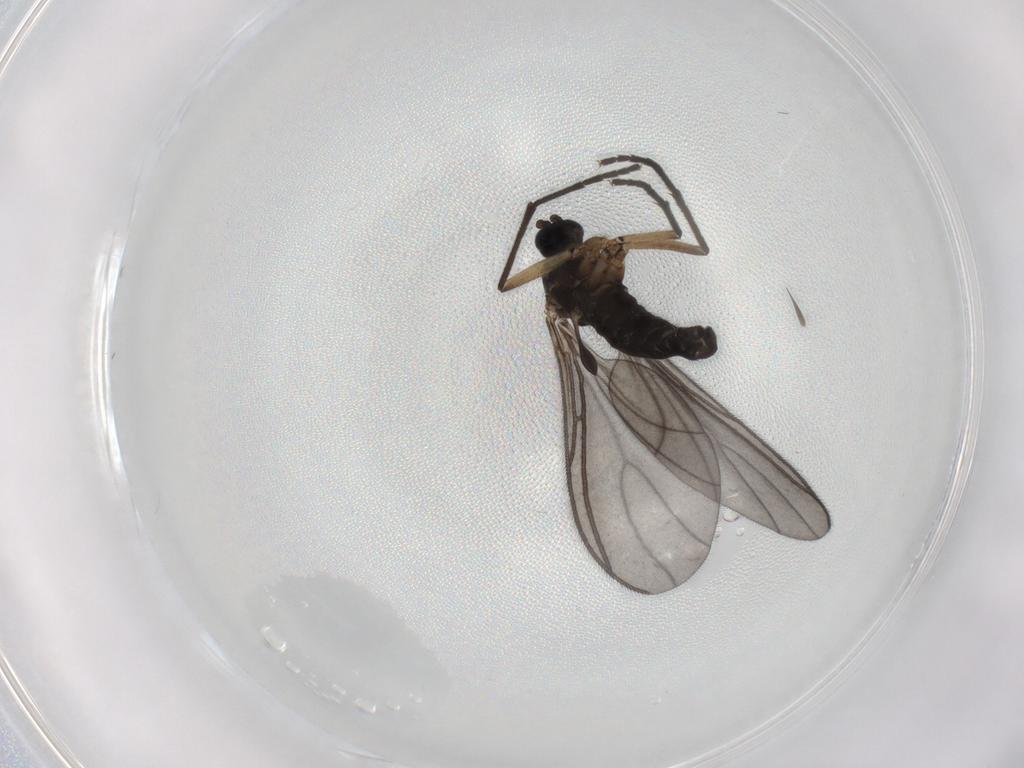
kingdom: Animalia
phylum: Arthropoda
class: Insecta
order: Diptera
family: Sciaridae
